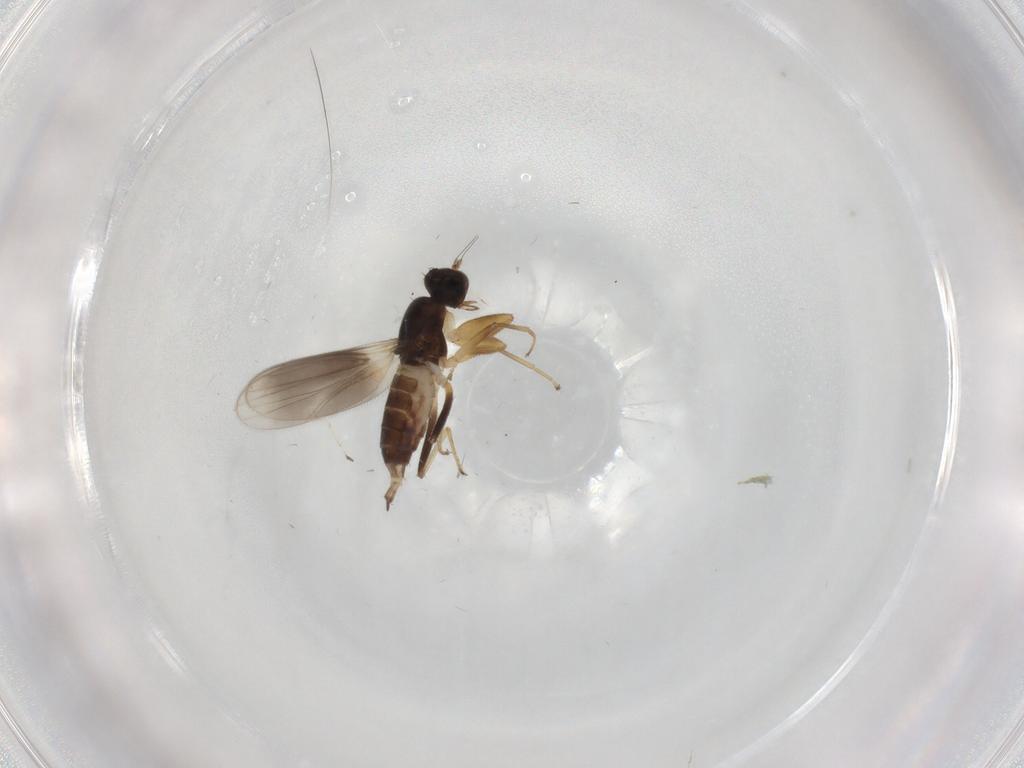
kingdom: Animalia
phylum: Arthropoda
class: Insecta
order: Diptera
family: Hybotidae
